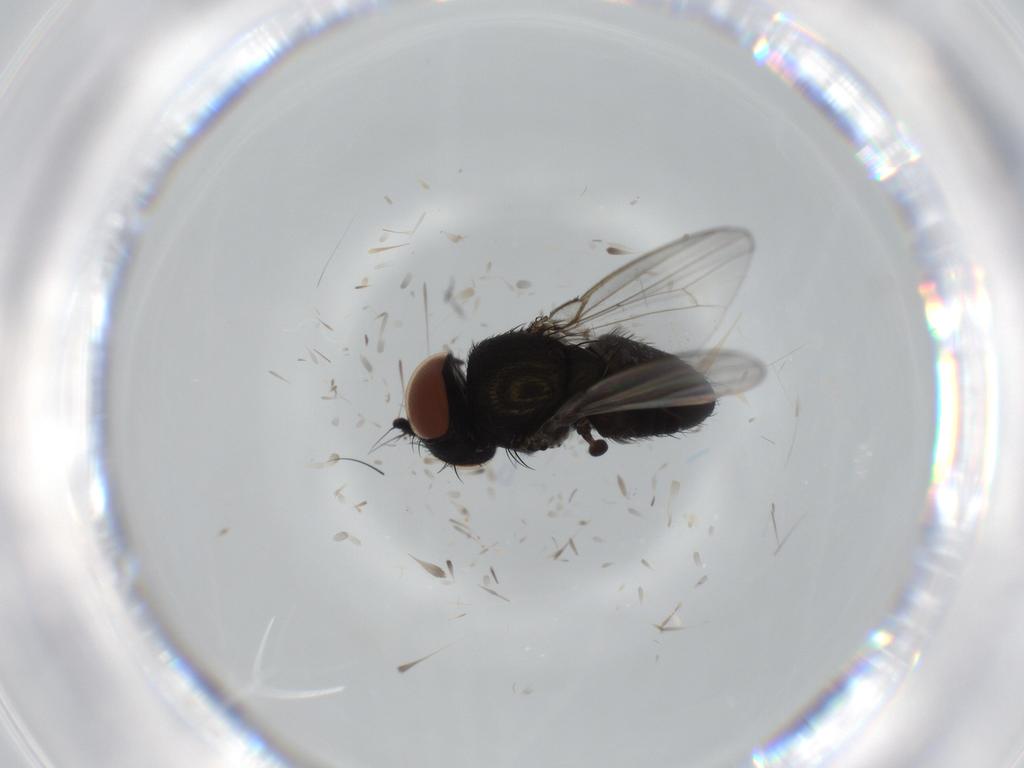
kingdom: Animalia
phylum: Arthropoda
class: Insecta
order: Diptera
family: Milichiidae
